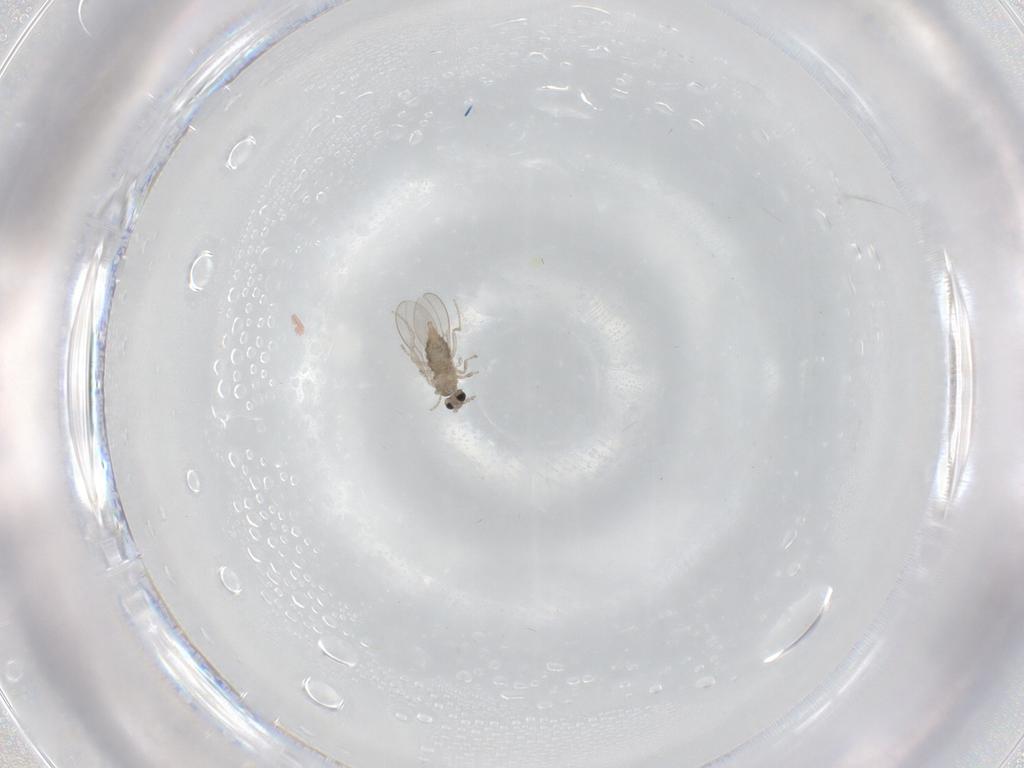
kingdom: Animalia
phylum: Arthropoda
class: Insecta
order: Diptera
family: Cecidomyiidae
